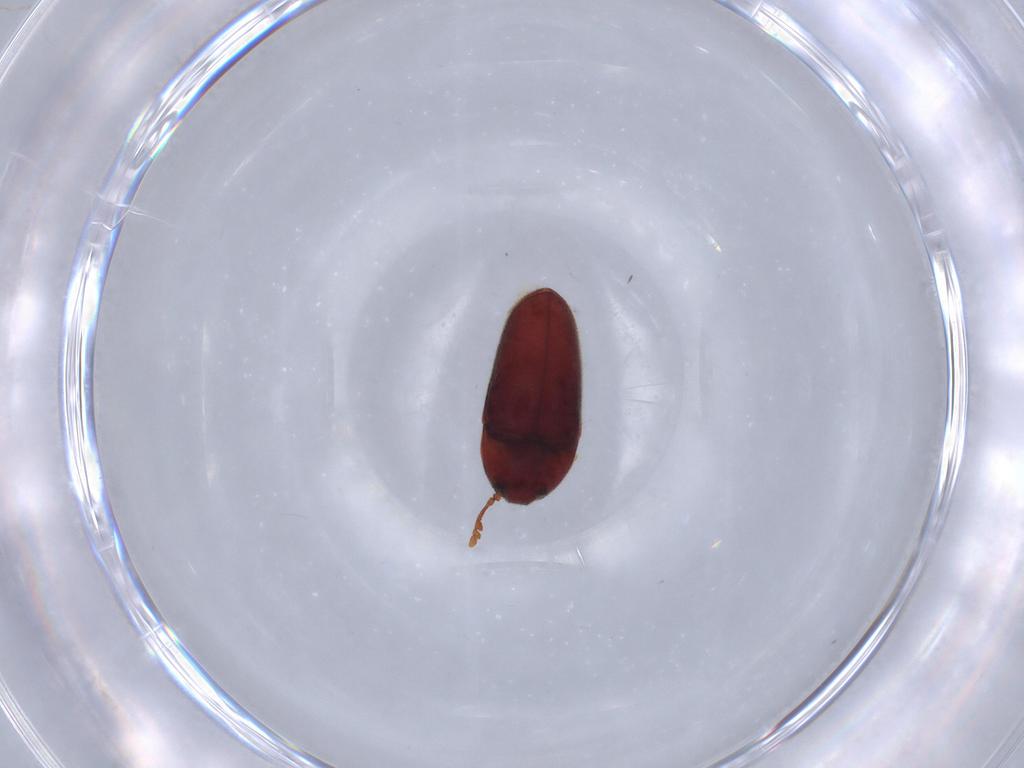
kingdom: Animalia
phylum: Arthropoda
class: Insecta
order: Coleoptera
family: Throscidae
